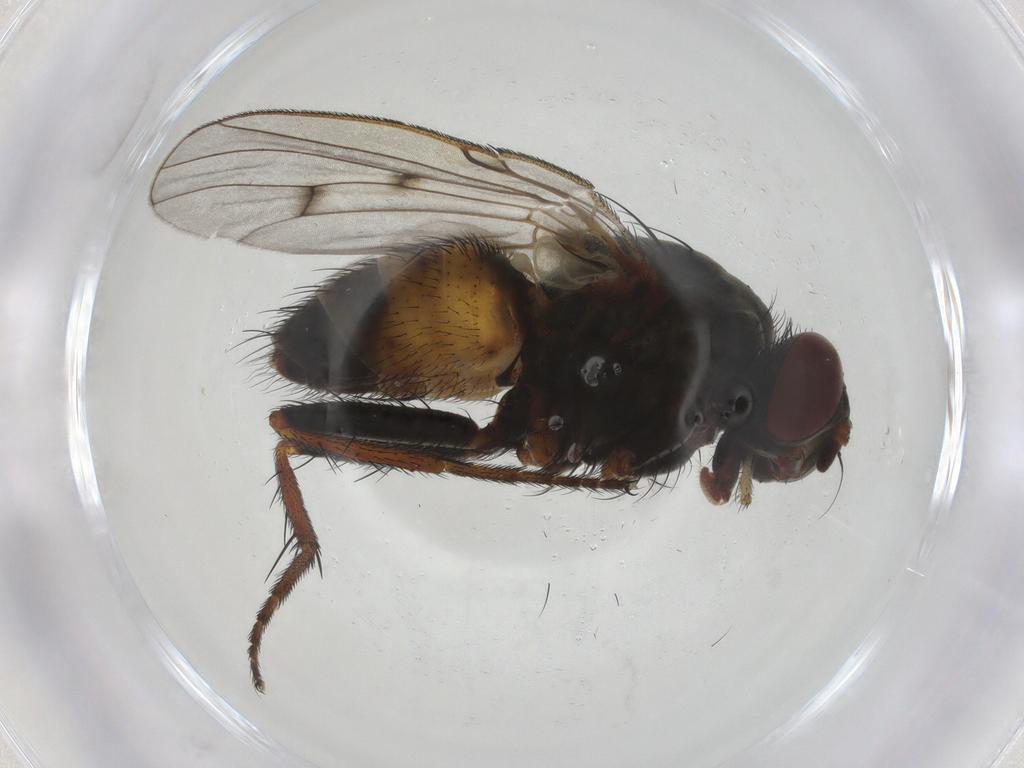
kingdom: Animalia
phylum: Arthropoda
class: Insecta
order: Diptera
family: Muscidae
